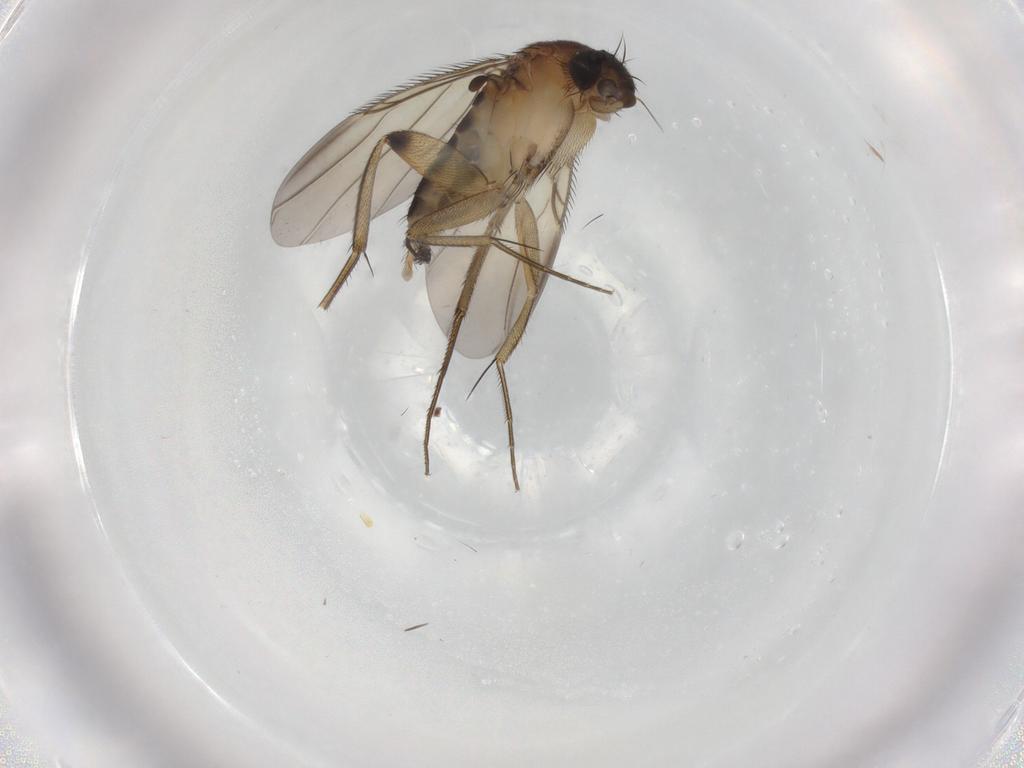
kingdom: Animalia
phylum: Arthropoda
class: Insecta
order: Diptera
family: Phoridae
